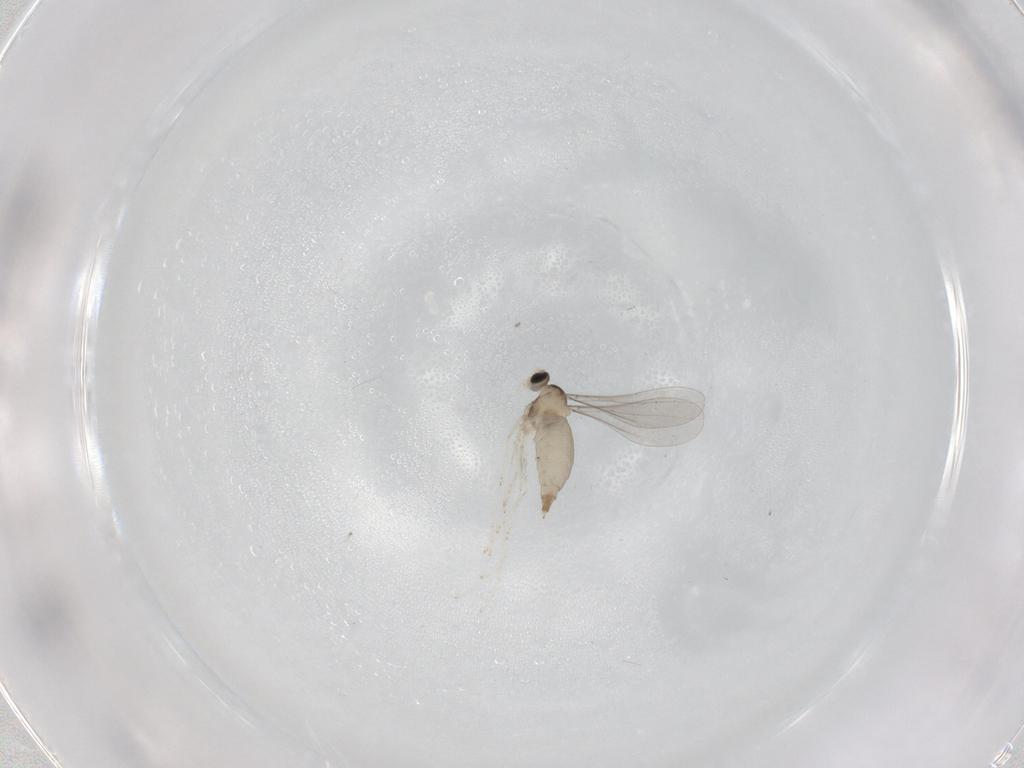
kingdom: Animalia
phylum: Arthropoda
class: Insecta
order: Diptera
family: Cecidomyiidae
